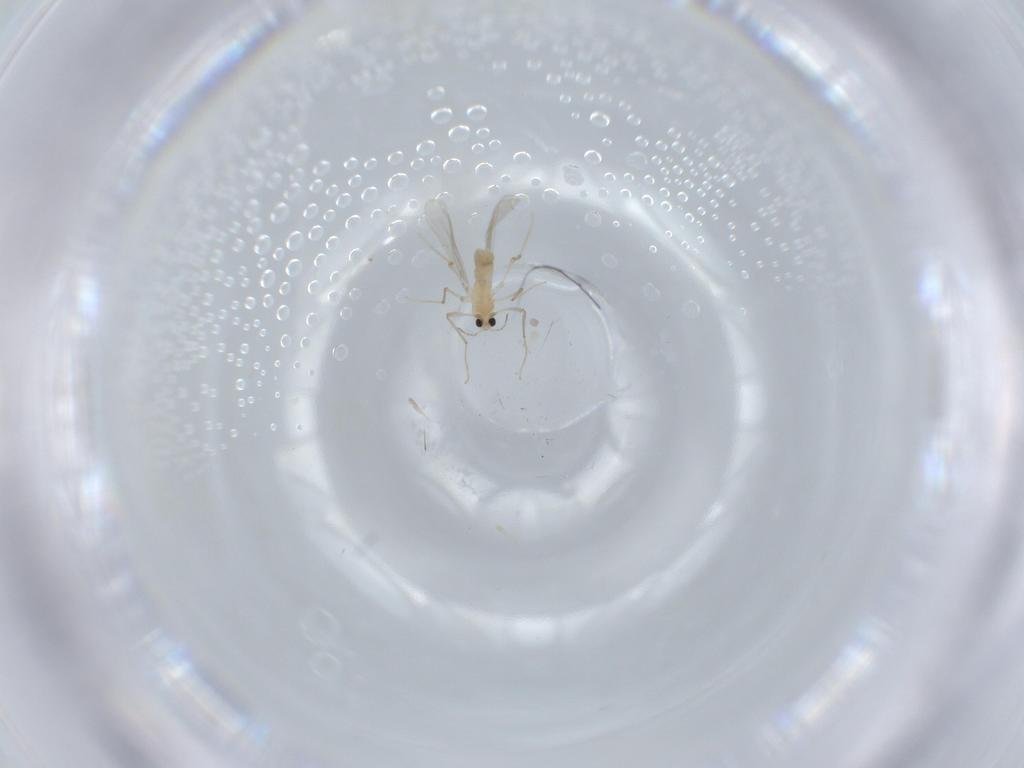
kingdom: Animalia
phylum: Arthropoda
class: Insecta
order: Diptera
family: Chironomidae
